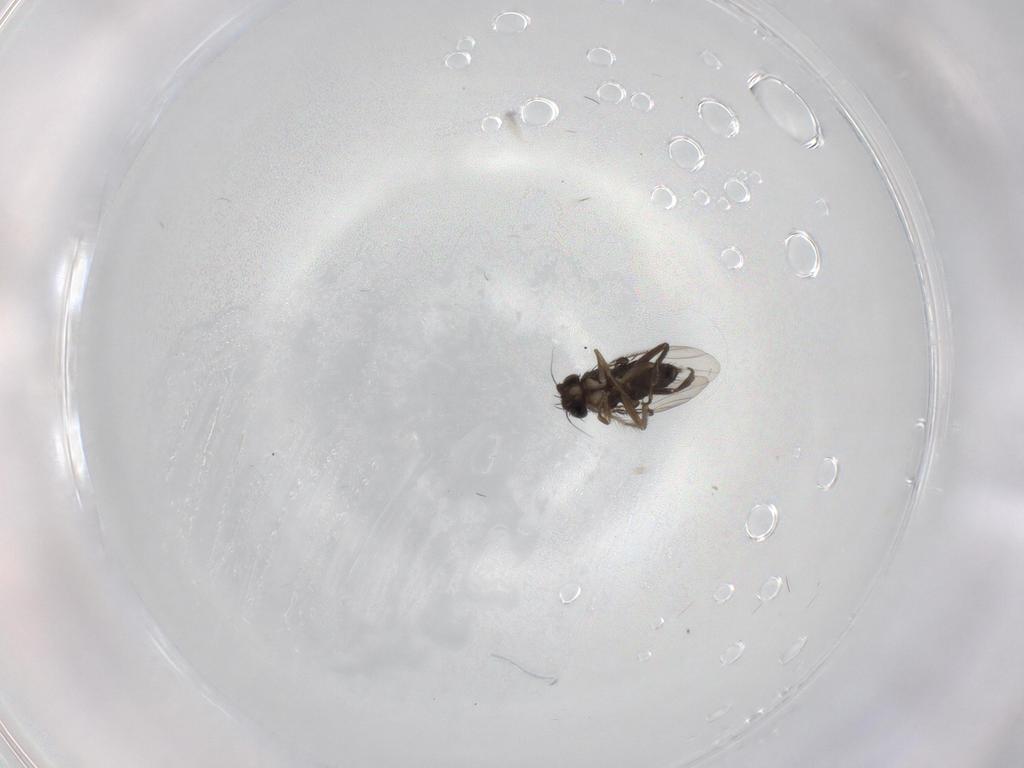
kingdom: Animalia
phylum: Arthropoda
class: Insecta
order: Diptera
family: Phoridae
